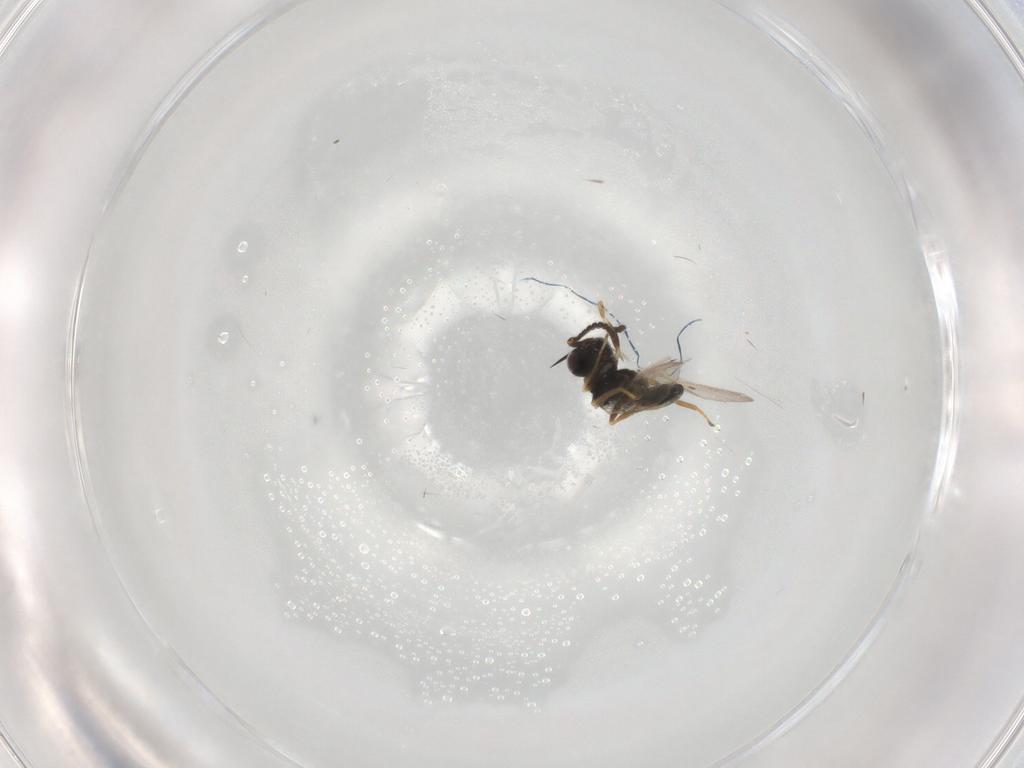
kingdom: Animalia
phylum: Arthropoda
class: Insecta
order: Hymenoptera
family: Pteromalidae
